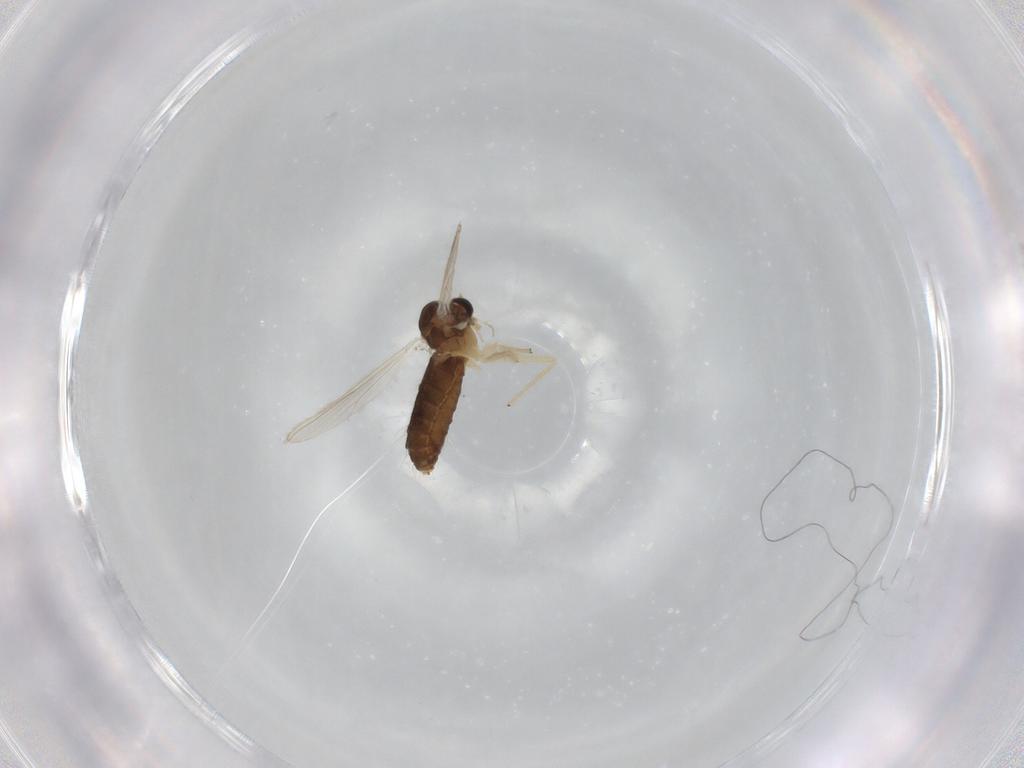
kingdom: Animalia
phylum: Arthropoda
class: Insecta
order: Diptera
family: Chironomidae
